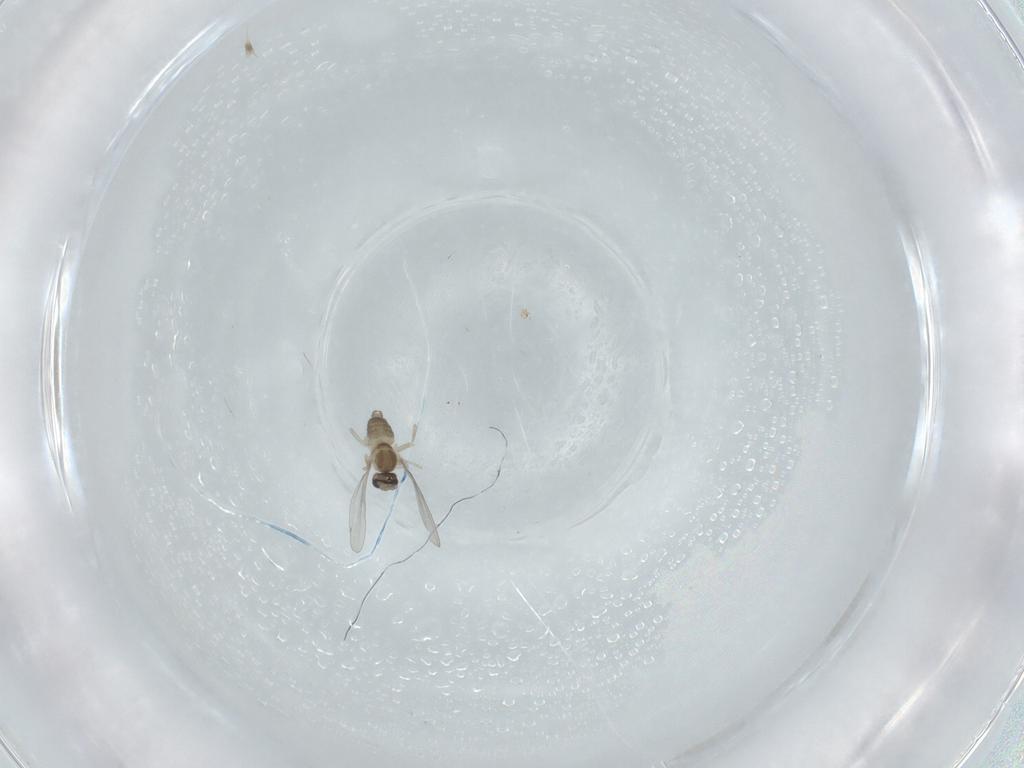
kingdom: Animalia
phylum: Arthropoda
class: Insecta
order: Diptera
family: Cecidomyiidae
